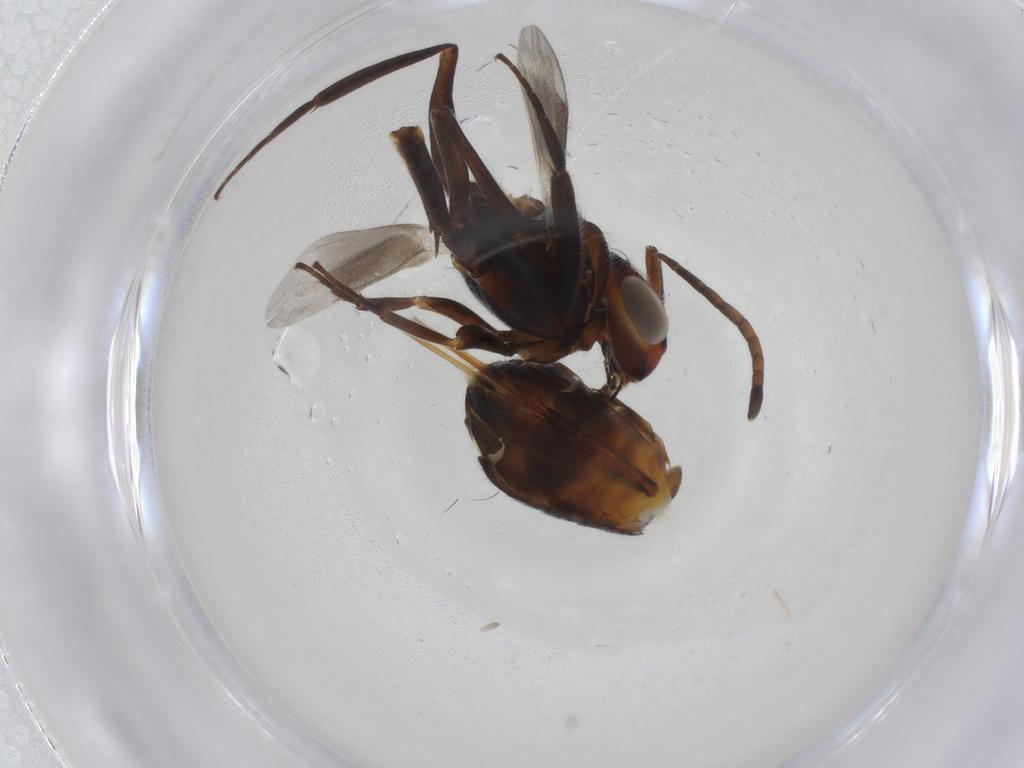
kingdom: Animalia
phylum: Arthropoda
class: Insecta
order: Hymenoptera
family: Eupelmidae
